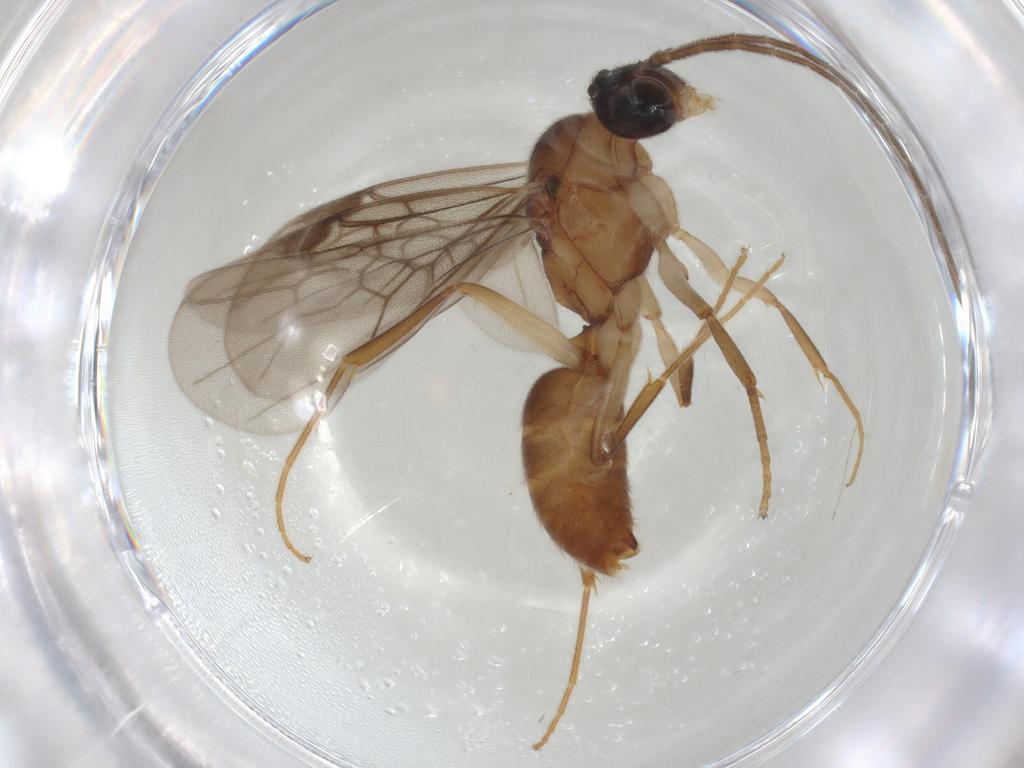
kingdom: Animalia
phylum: Arthropoda
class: Insecta
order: Hymenoptera
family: Formicidae
